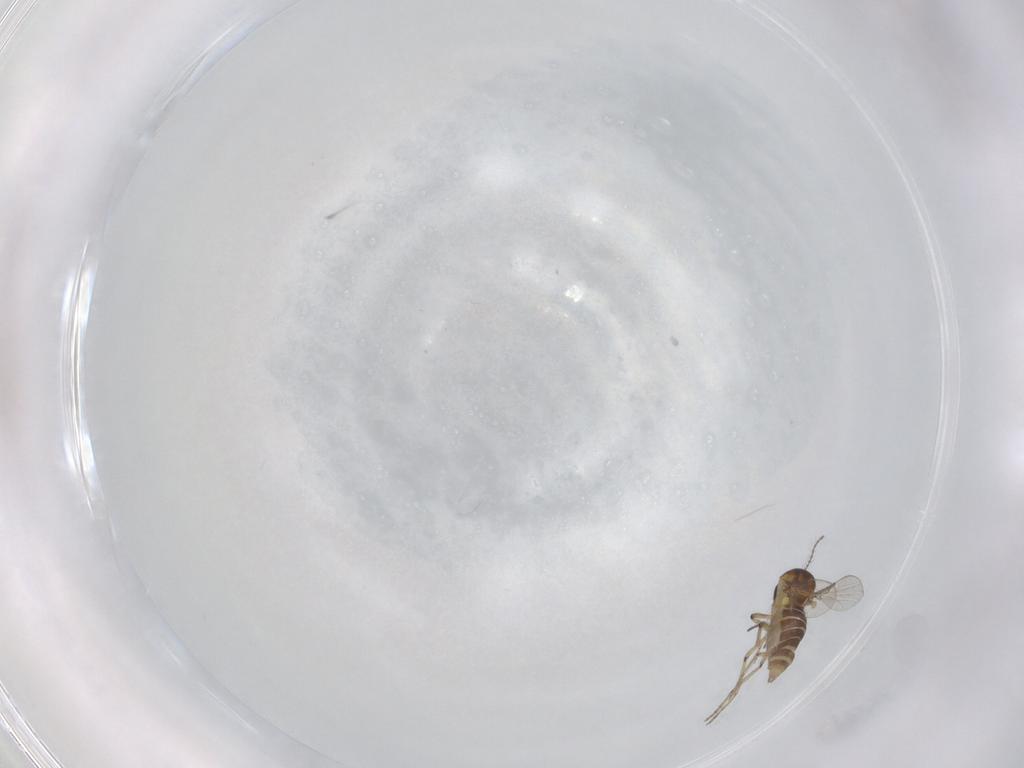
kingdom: Animalia
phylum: Arthropoda
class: Insecta
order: Diptera
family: Ceratopogonidae
